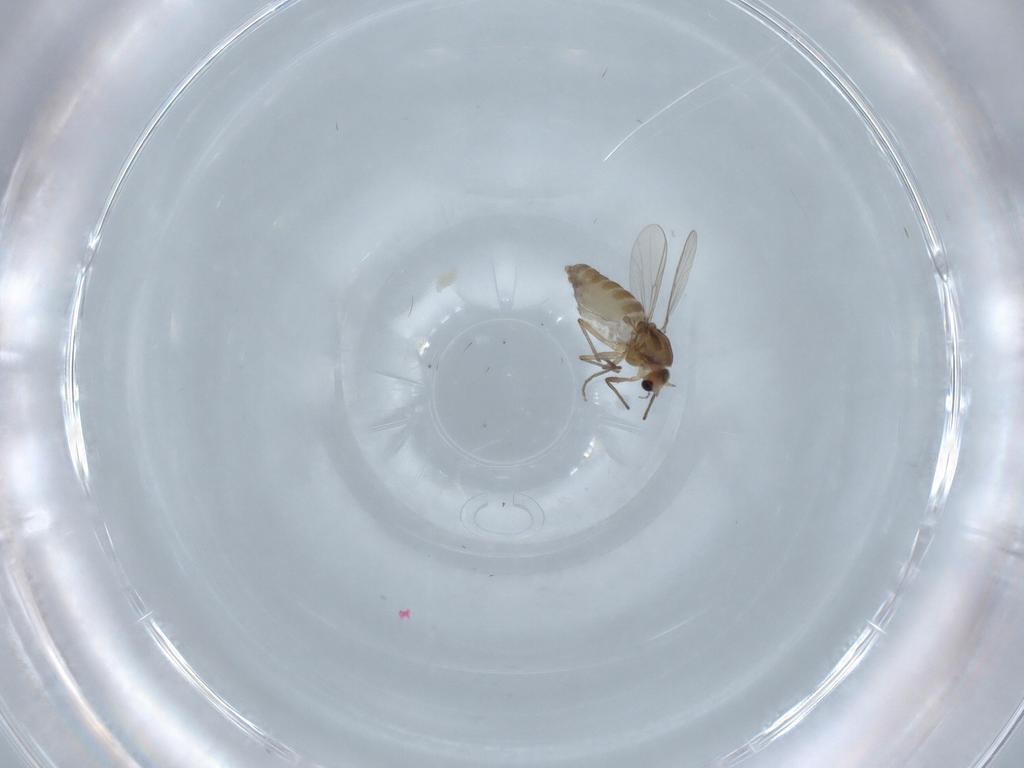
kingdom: Animalia
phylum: Arthropoda
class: Insecta
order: Diptera
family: Chironomidae
